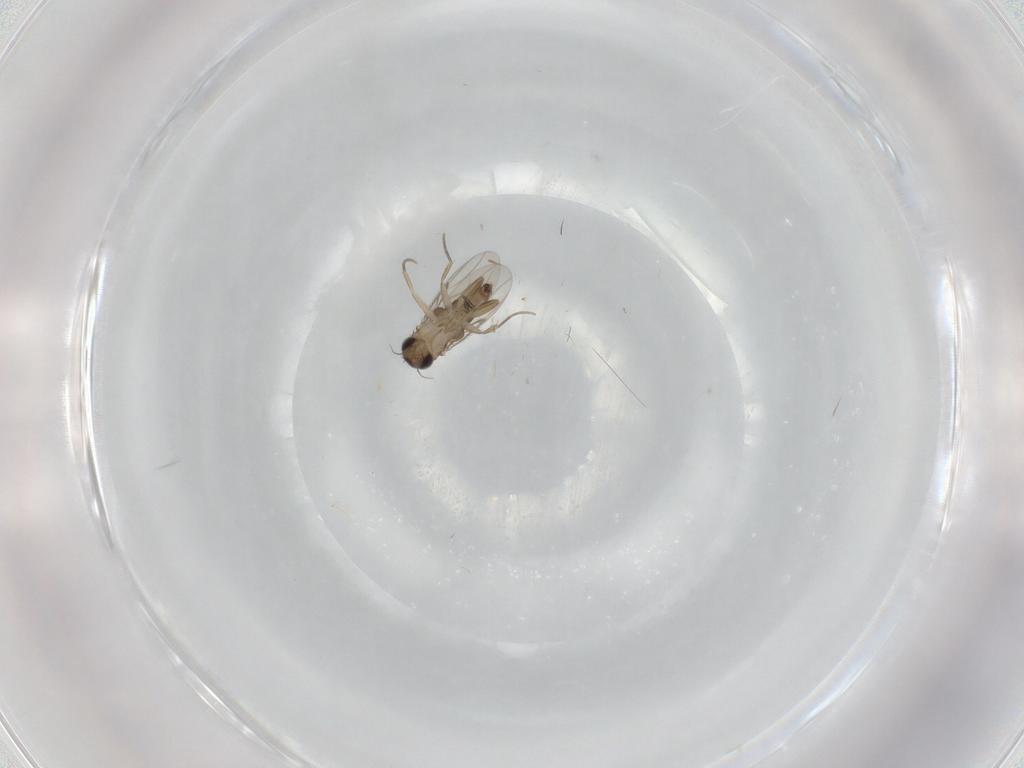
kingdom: Animalia
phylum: Arthropoda
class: Insecta
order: Diptera
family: Phoridae
